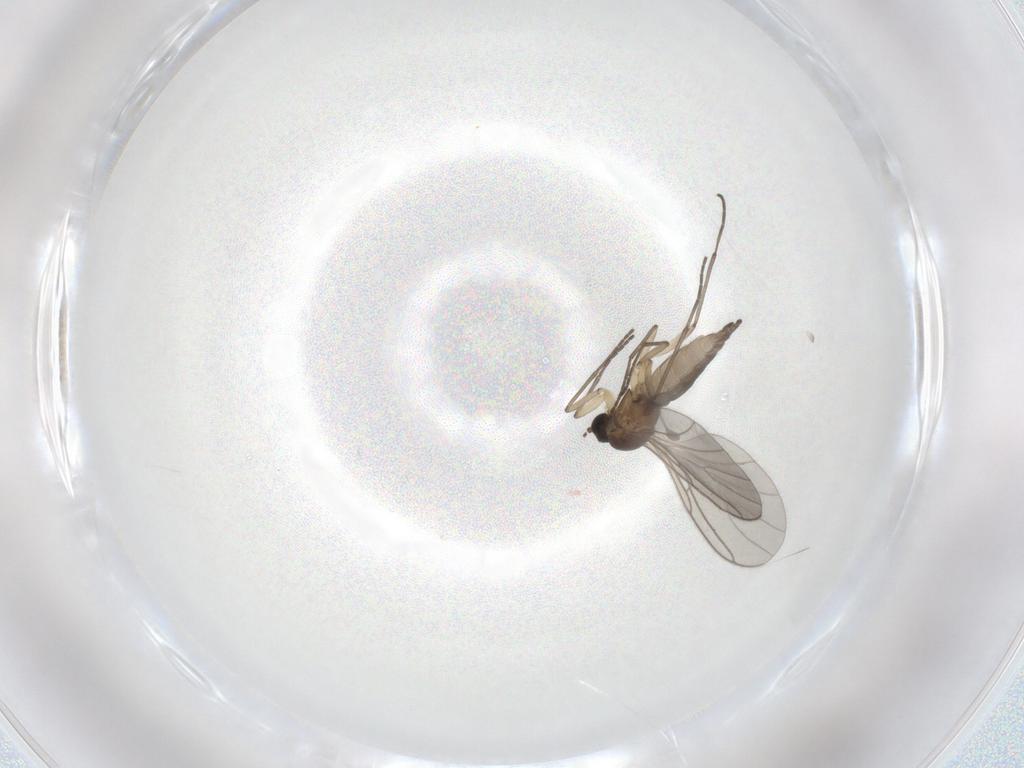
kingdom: Animalia
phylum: Arthropoda
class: Insecta
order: Diptera
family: Sciaridae
